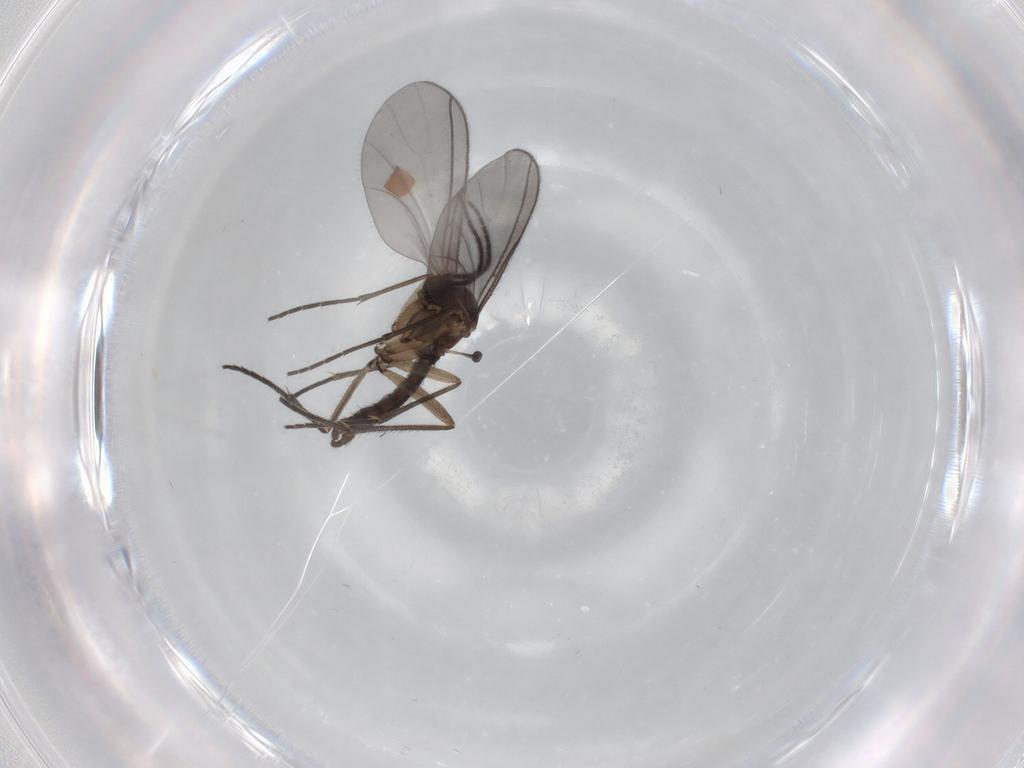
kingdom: Animalia
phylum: Arthropoda
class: Insecta
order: Diptera
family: Sciaridae
